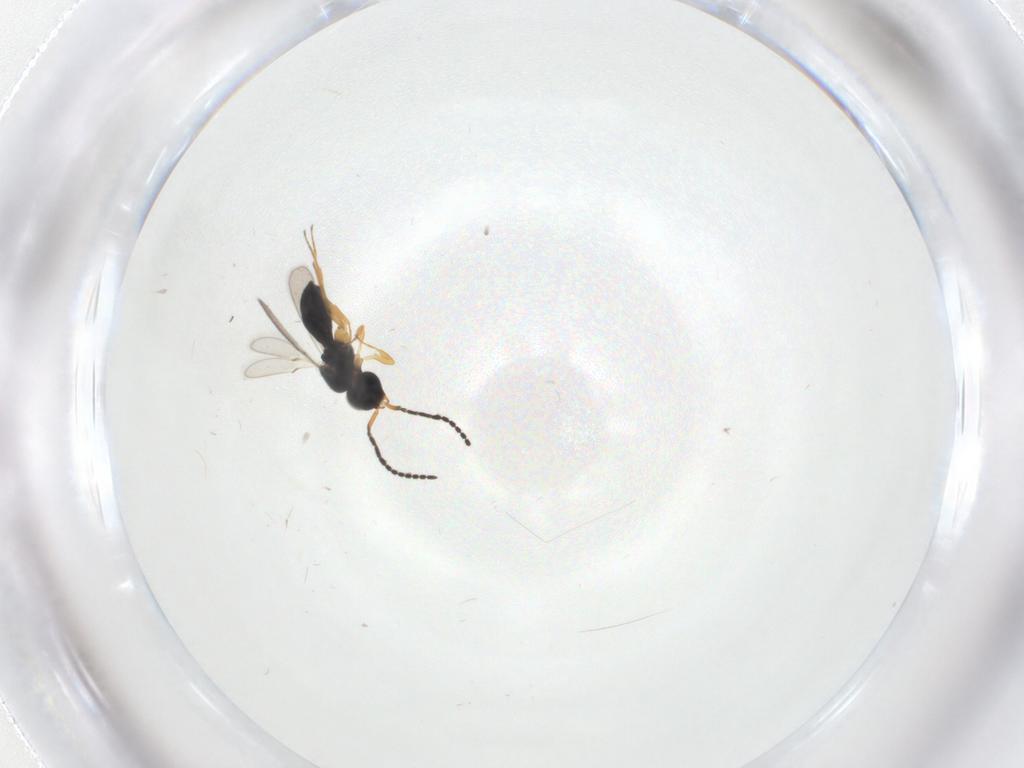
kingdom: Animalia
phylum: Arthropoda
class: Insecta
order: Hymenoptera
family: Scelionidae
